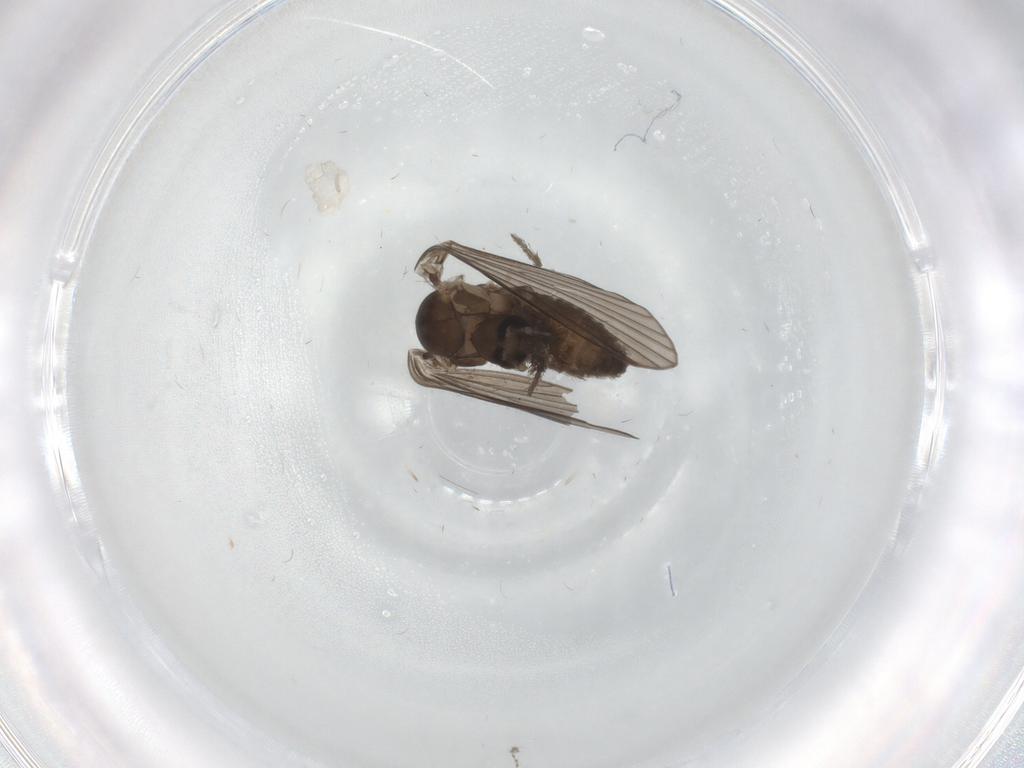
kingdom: Animalia
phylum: Arthropoda
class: Insecta
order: Diptera
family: Psychodidae
